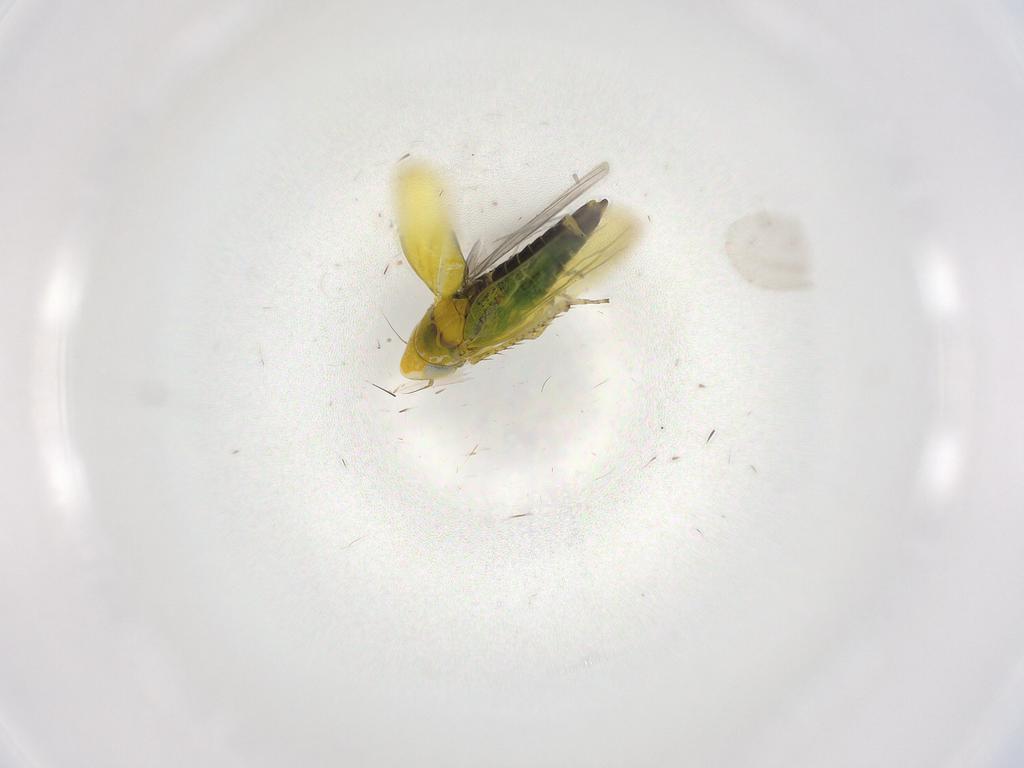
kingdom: Animalia
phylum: Arthropoda
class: Insecta
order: Hemiptera
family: Cicadellidae
